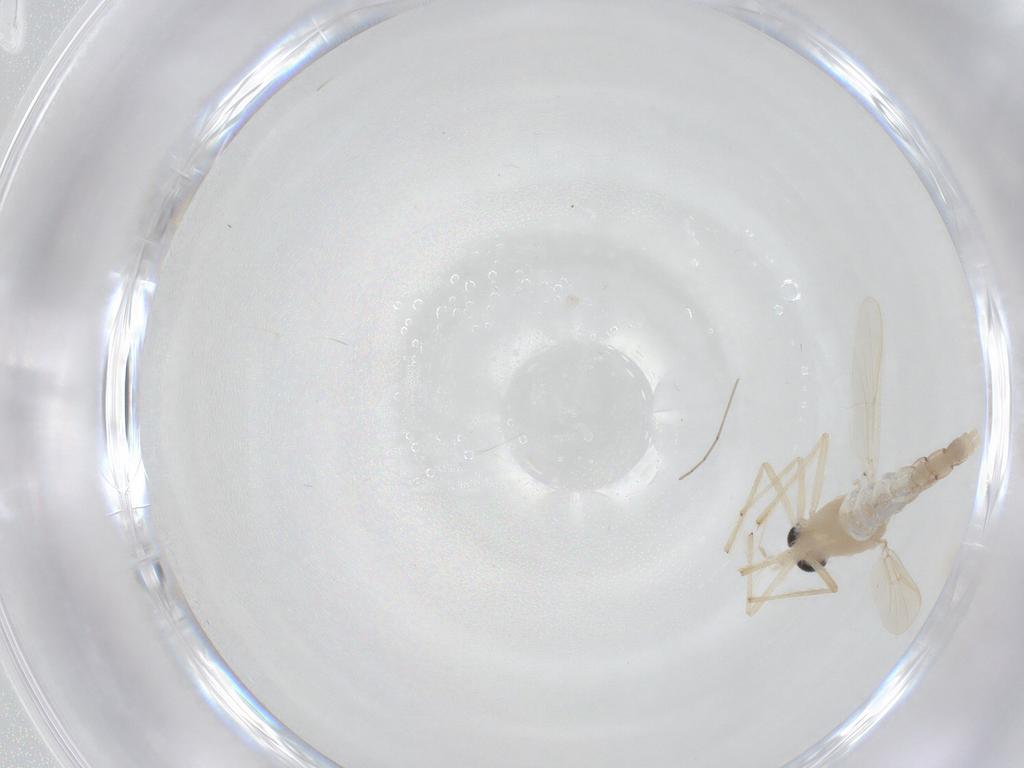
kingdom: Animalia
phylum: Arthropoda
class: Insecta
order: Diptera
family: Chironomidae
